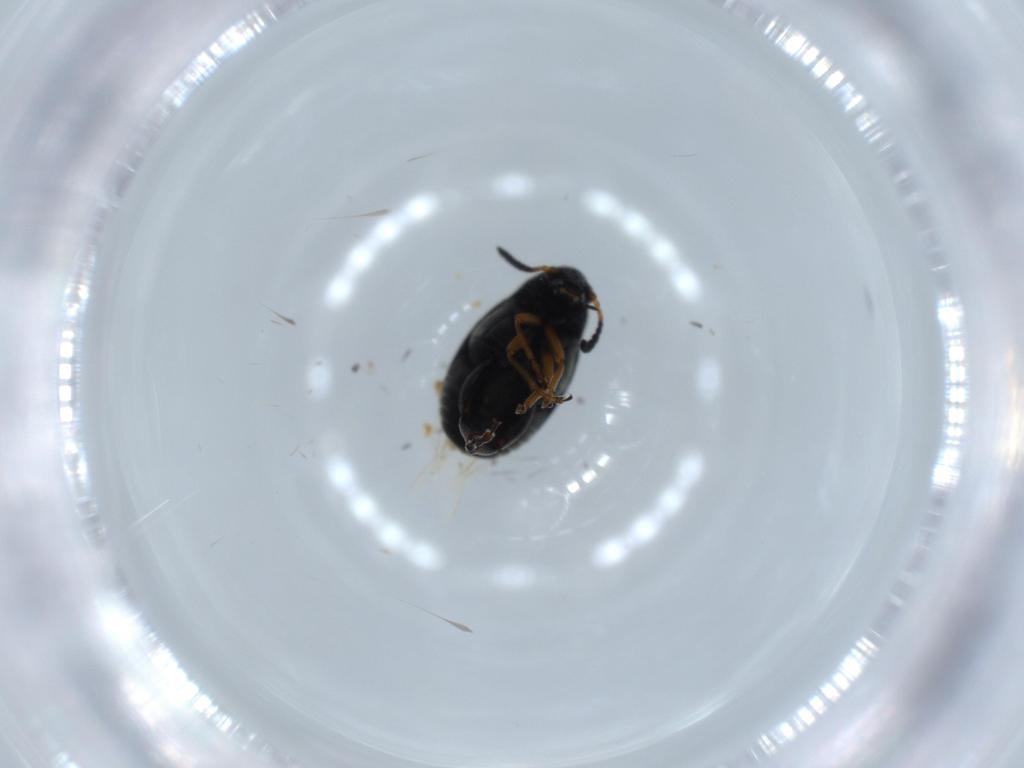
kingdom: Animalia
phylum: Arthropoda
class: Insecta
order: Coleoptera
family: Chrysomelidae
